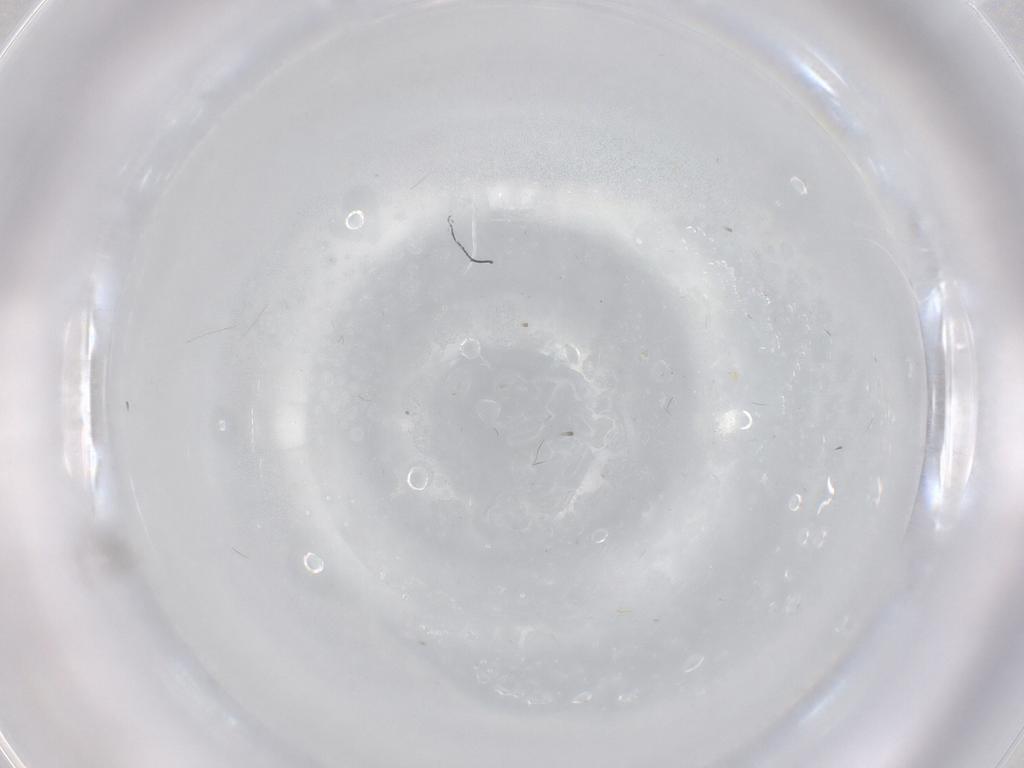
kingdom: Animalia
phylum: Arthropoda
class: Insecta
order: Diptera
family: Cecidomyiidae
